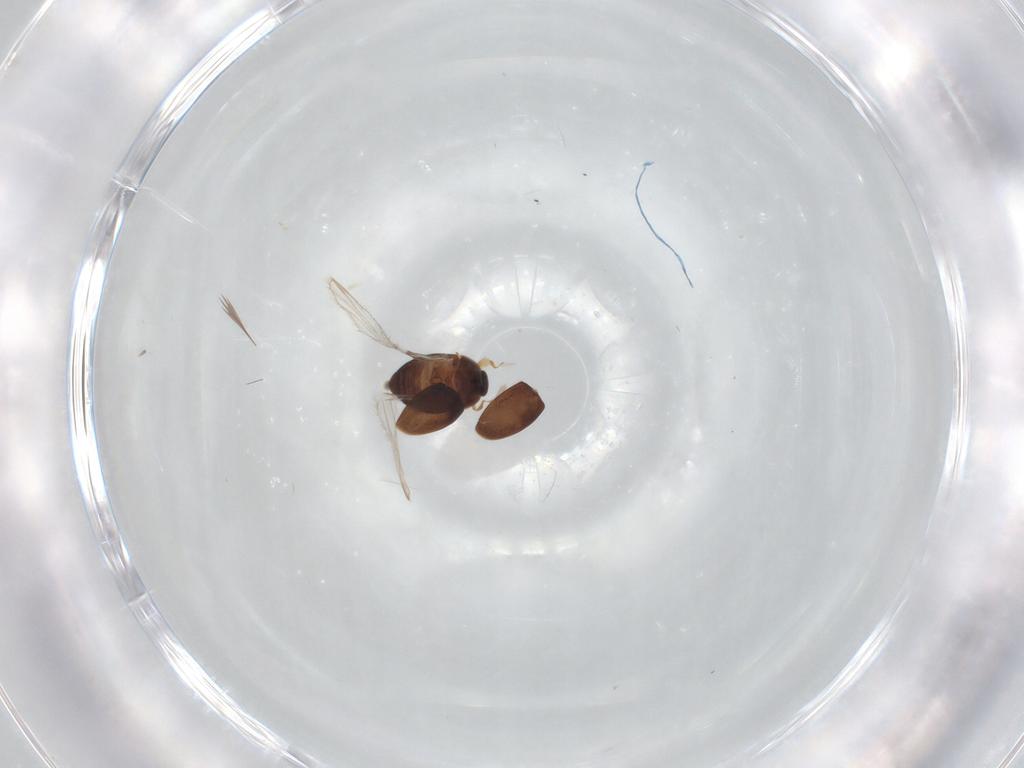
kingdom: Animalia
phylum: Arthropoda
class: Insecta
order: Coleoptera
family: Corylophidae
